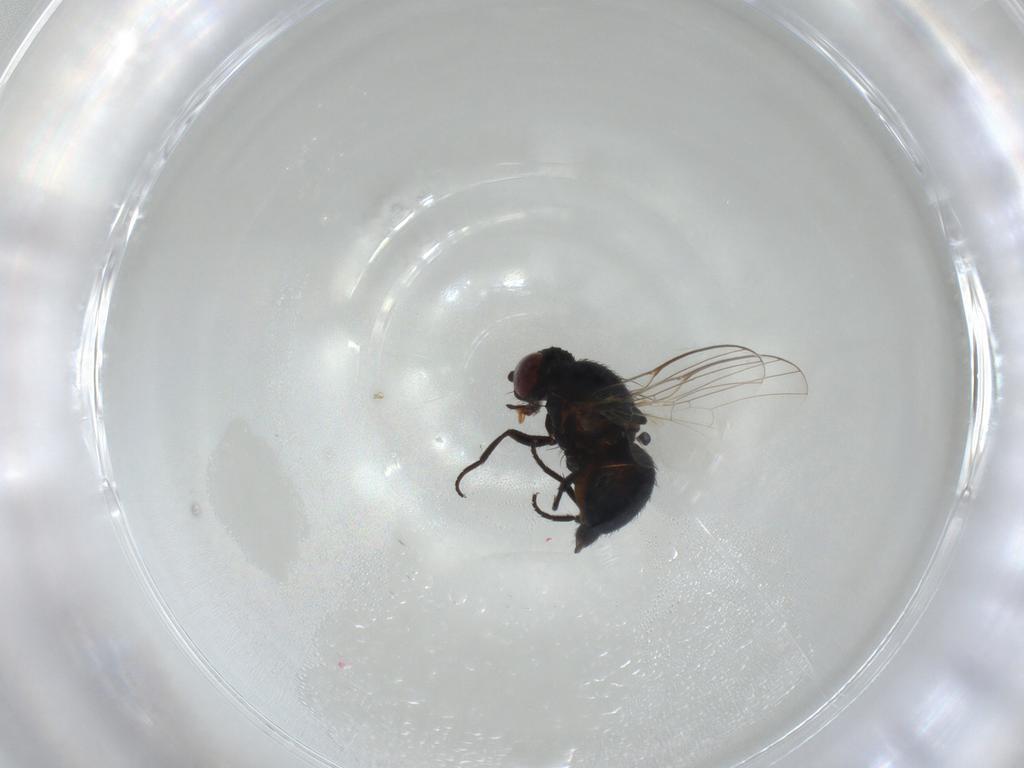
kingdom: Animalia
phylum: Arthropoda
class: Insecta
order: Diptera
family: Agromyzidae
